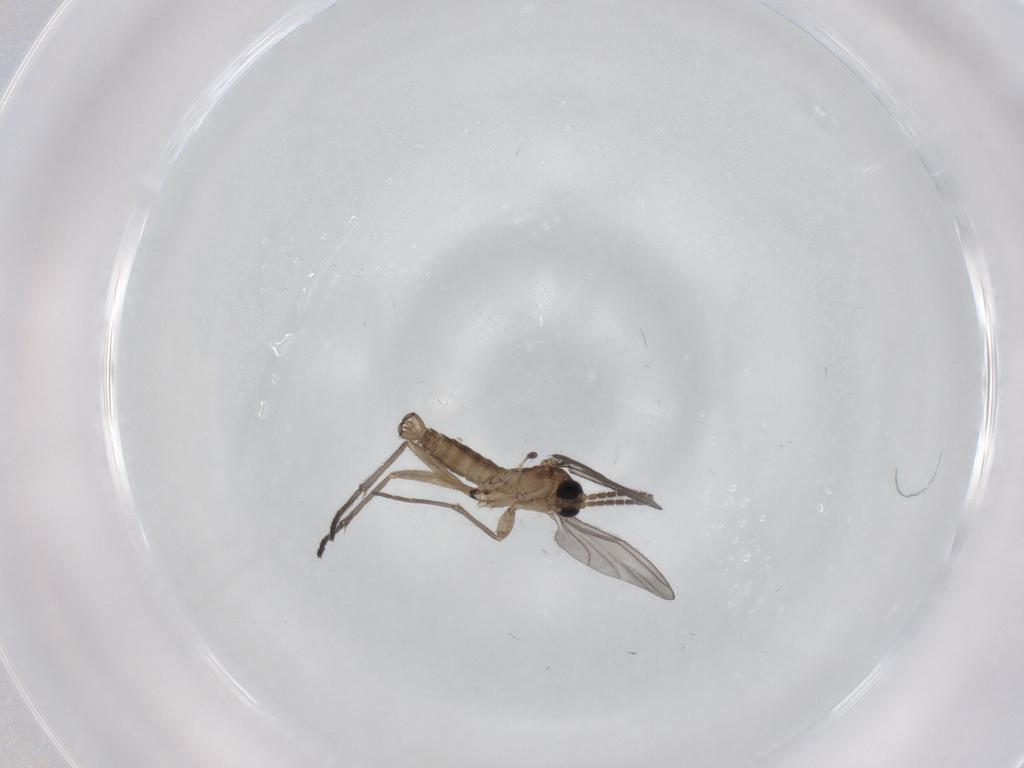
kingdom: Animalia
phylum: Arthropoda
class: Insecta
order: Diptera
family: Sciaridae
